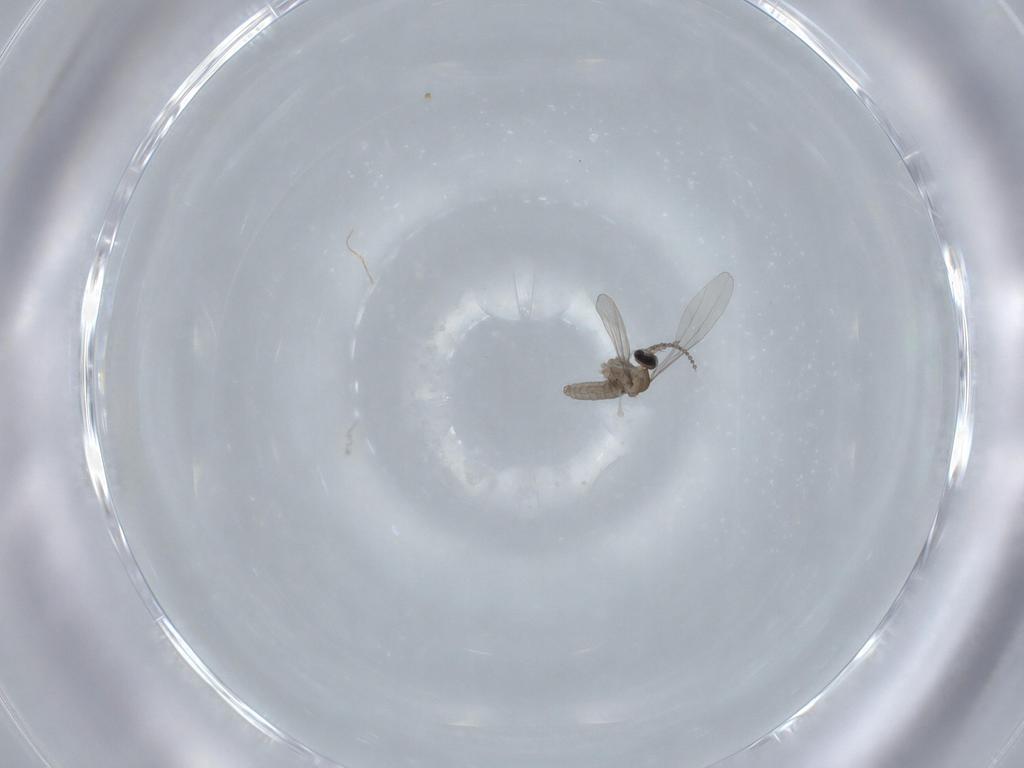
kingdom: Animalia
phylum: Arthropoda
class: Insecta
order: Diptera
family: Cecidomyiidae
